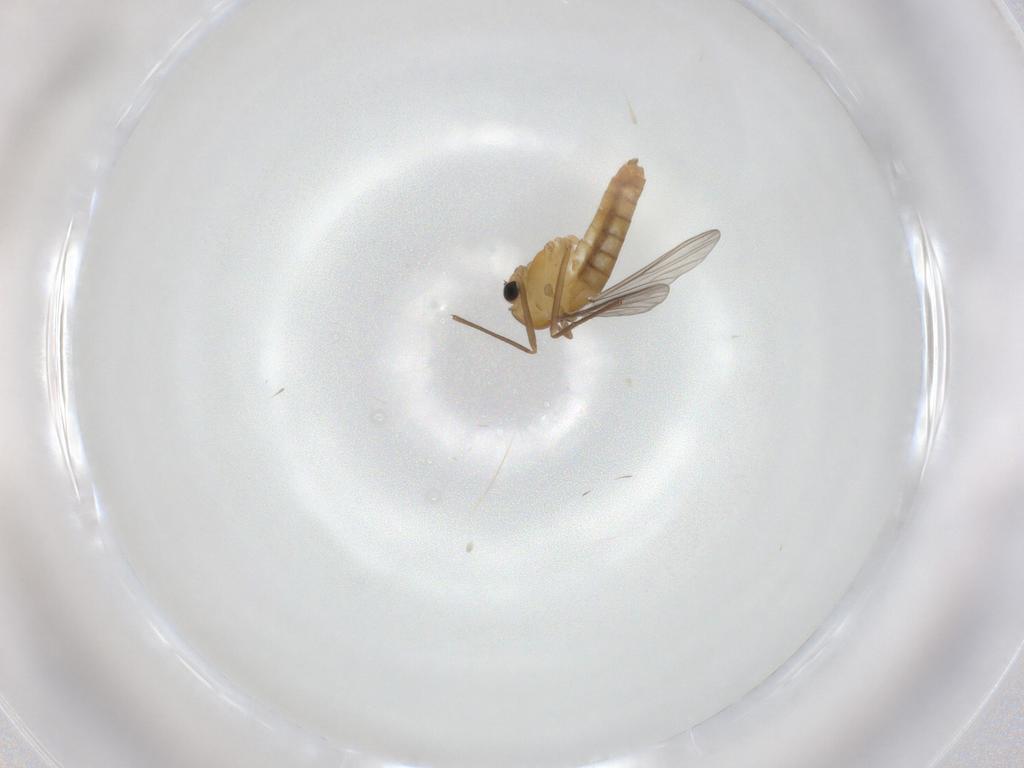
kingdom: Animalia
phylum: Arthropoda
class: Insecta
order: Diptera
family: Chironomidae
